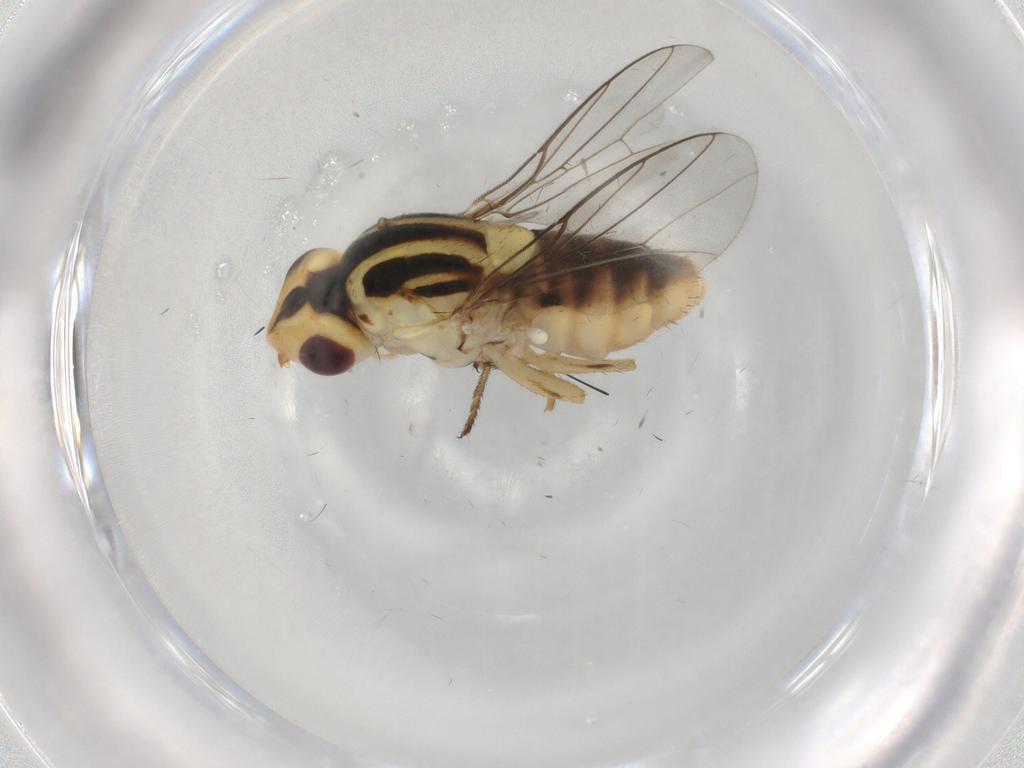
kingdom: Animalia
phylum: Arthropoda
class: Insecta
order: Diptera
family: Chloropidae
